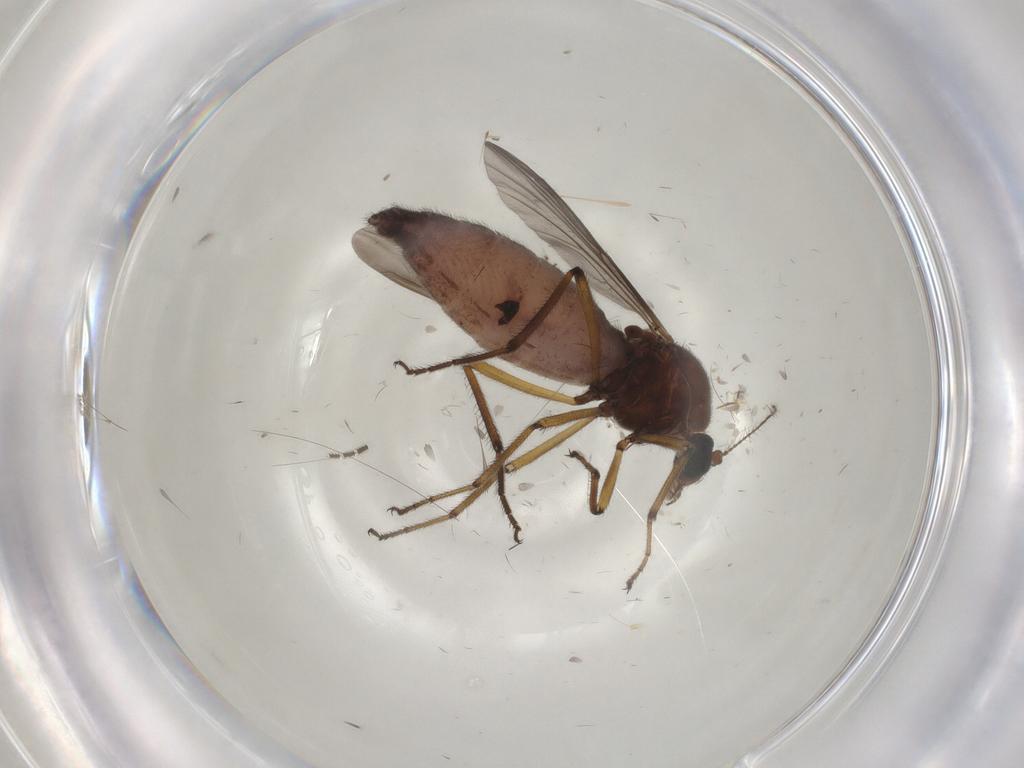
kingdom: Animalia
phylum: Arthropoda
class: Insecta
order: Diptera
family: Ceratopogonidae
